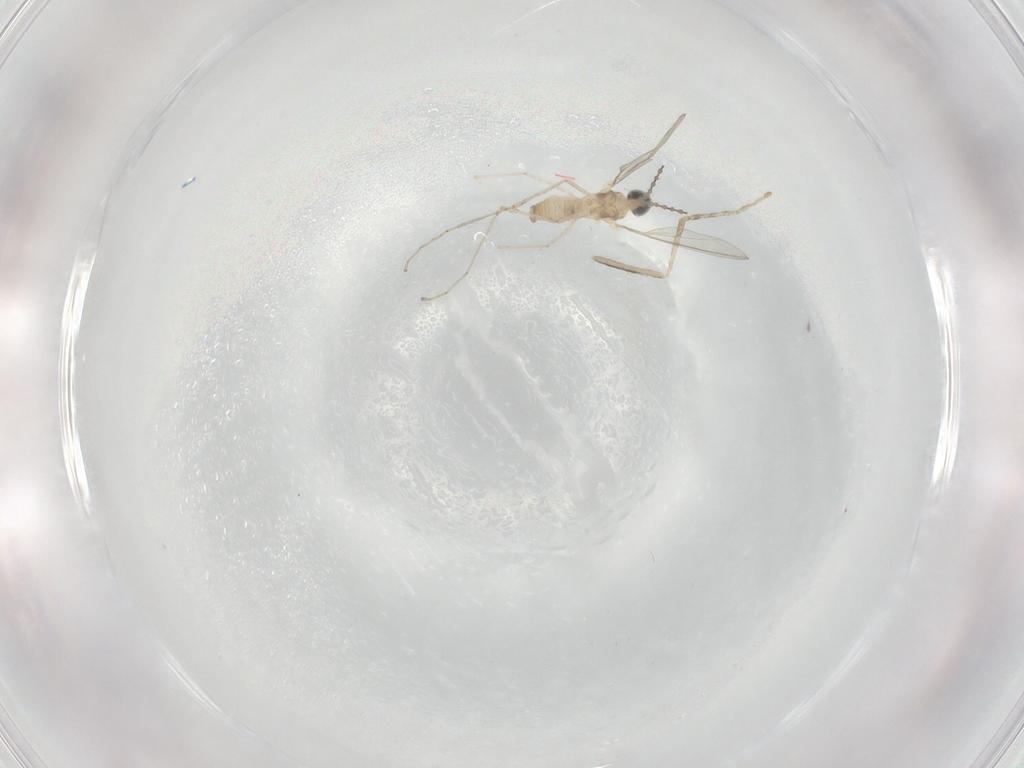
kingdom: Animalia
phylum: Arthropoda
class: Insecta
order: Diptera
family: Cecidomyiidae
